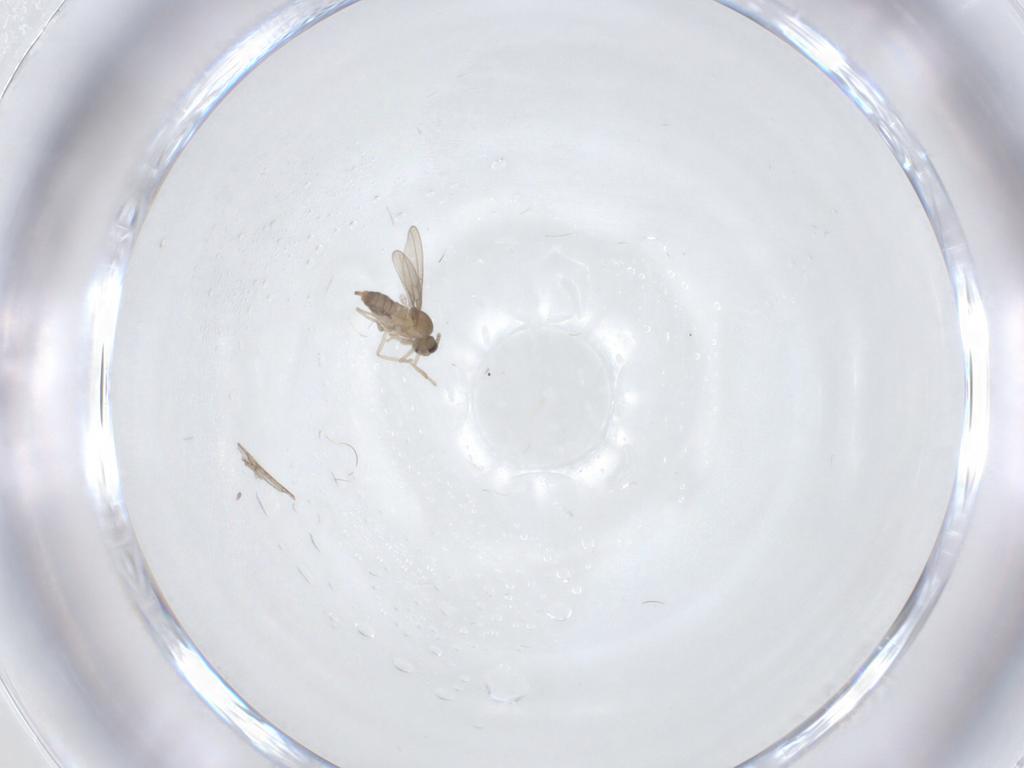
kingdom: Animalia
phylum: Arthropoda
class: Insecta
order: Diptera
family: Cecidomyiidae
